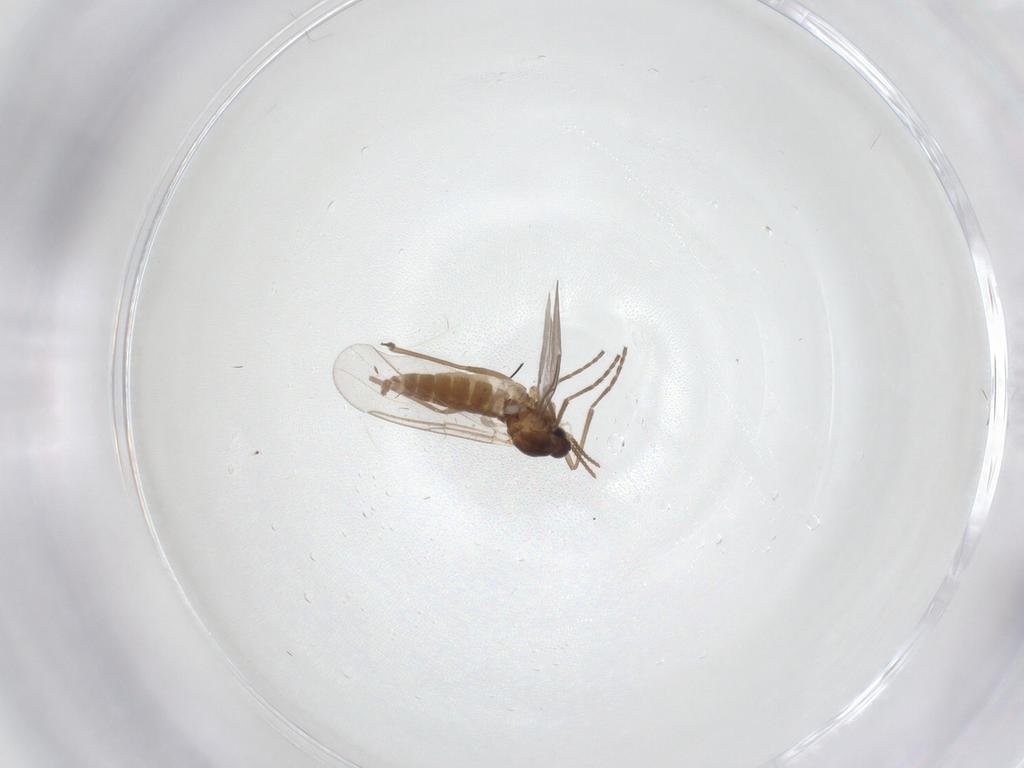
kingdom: Animalia
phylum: Arthropoda
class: Insecta
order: Diptera
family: Cecidomyiidae
